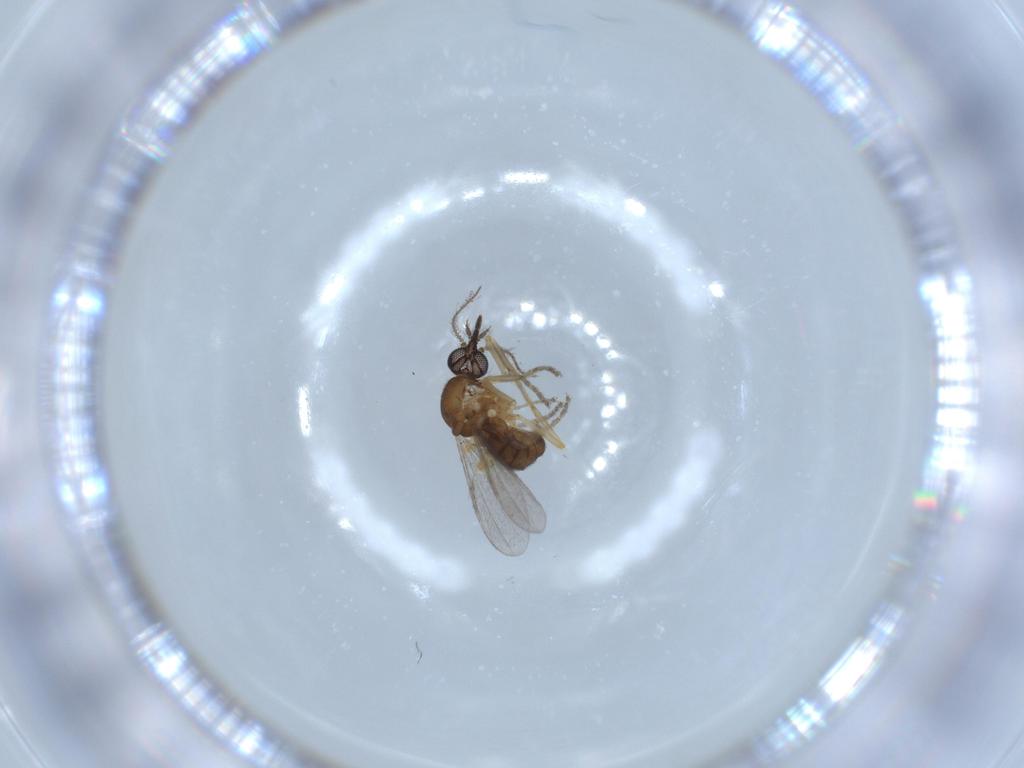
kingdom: Animalia
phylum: Arthropoda
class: Insecta
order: Diptera
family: Ceratopogonidae
